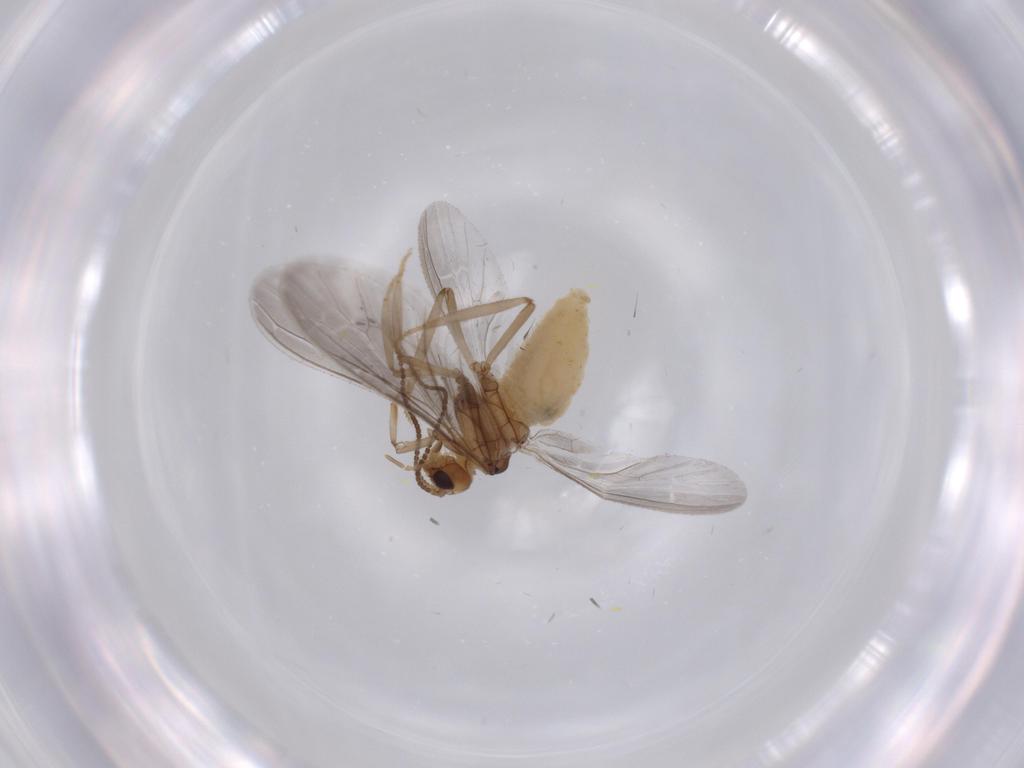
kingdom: Animalia
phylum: Arthropoda
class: Insecta
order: Neuroptera
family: Coniopterygidae
